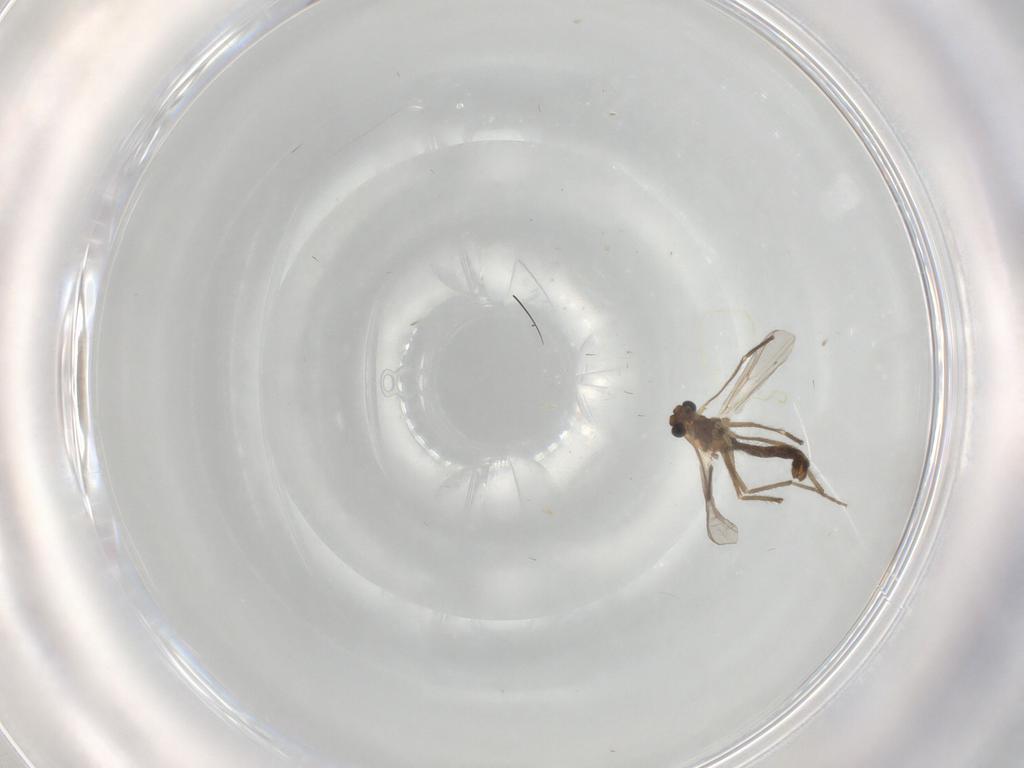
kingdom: Animalia
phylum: Arthropoda
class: Insecta
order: Diptera
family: Chironomidae
